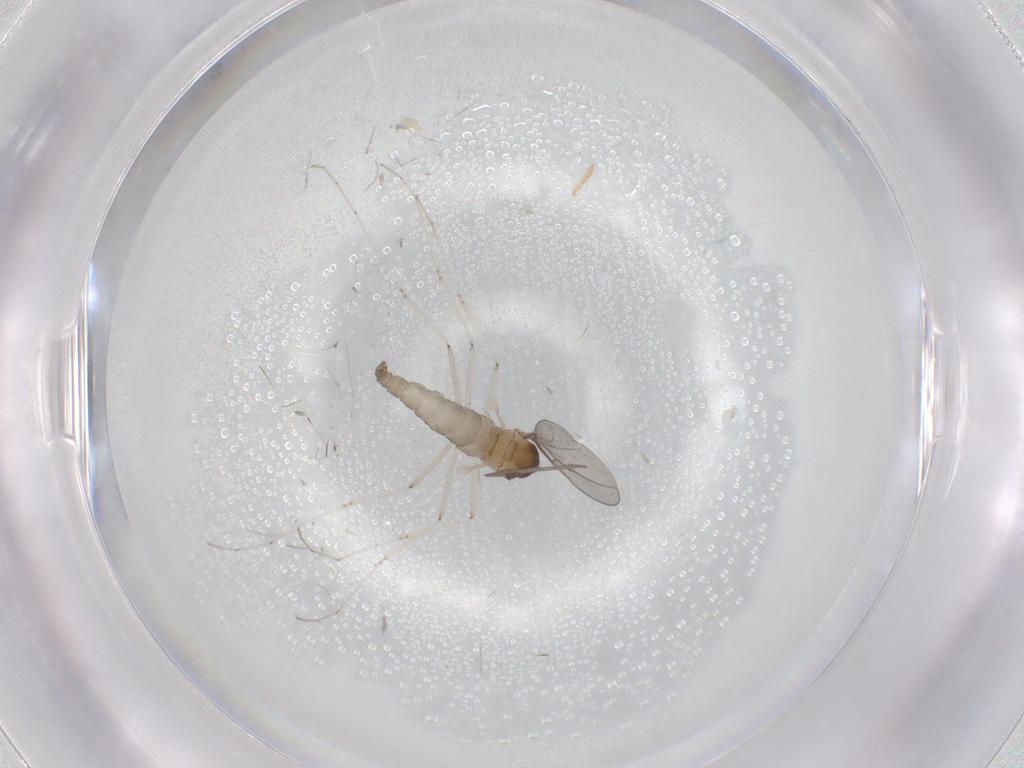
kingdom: Animalia
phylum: Arthropoda
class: Insecta
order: Diptera
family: Cecidomyiidae
